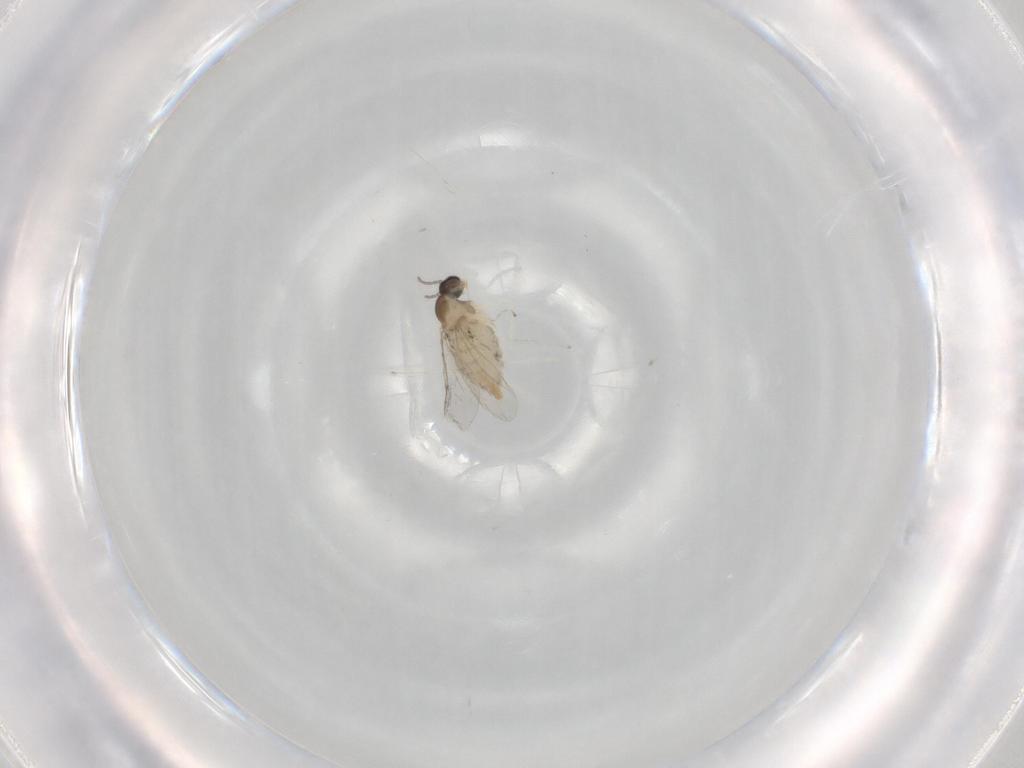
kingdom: Animalia
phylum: Arthropoda
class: Insecta
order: Diptera
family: Cecidomyiidae
